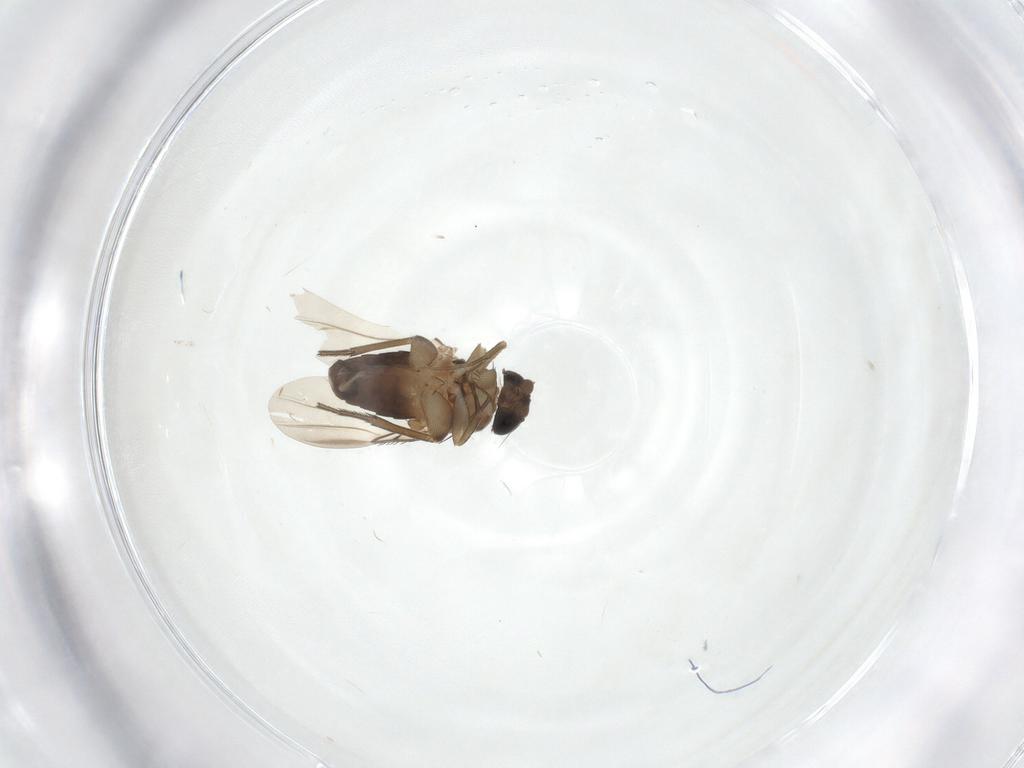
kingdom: Animalia
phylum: Arthropoda
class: Insecta
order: Diptera
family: Phoridae
